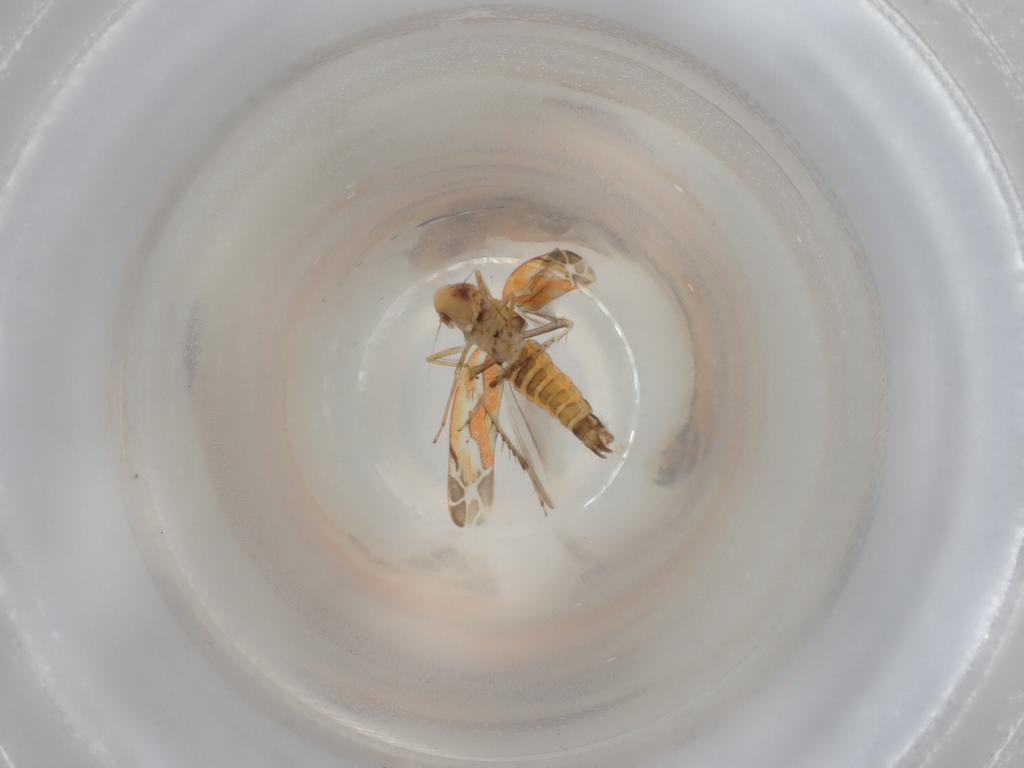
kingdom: Animalia
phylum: Arthropoda
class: Insecta
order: Hemiptera
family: Cicadellidae
